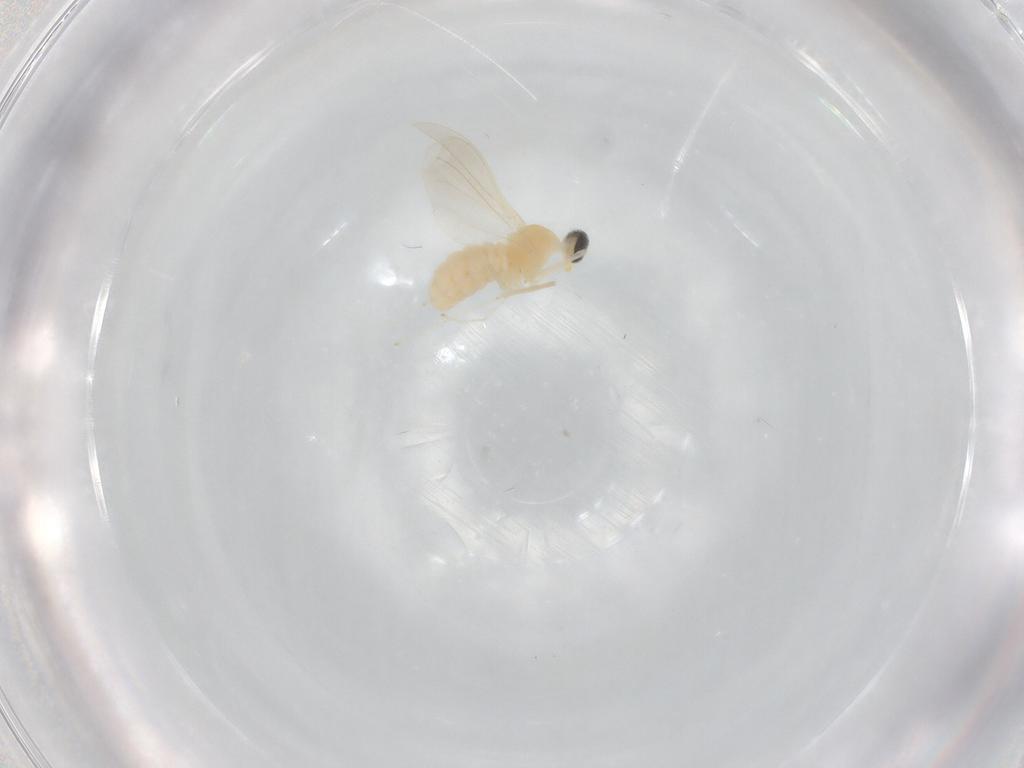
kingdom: Animalia
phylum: Arthropoda
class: Insecta
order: Diptera
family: Cecidomyiidae
